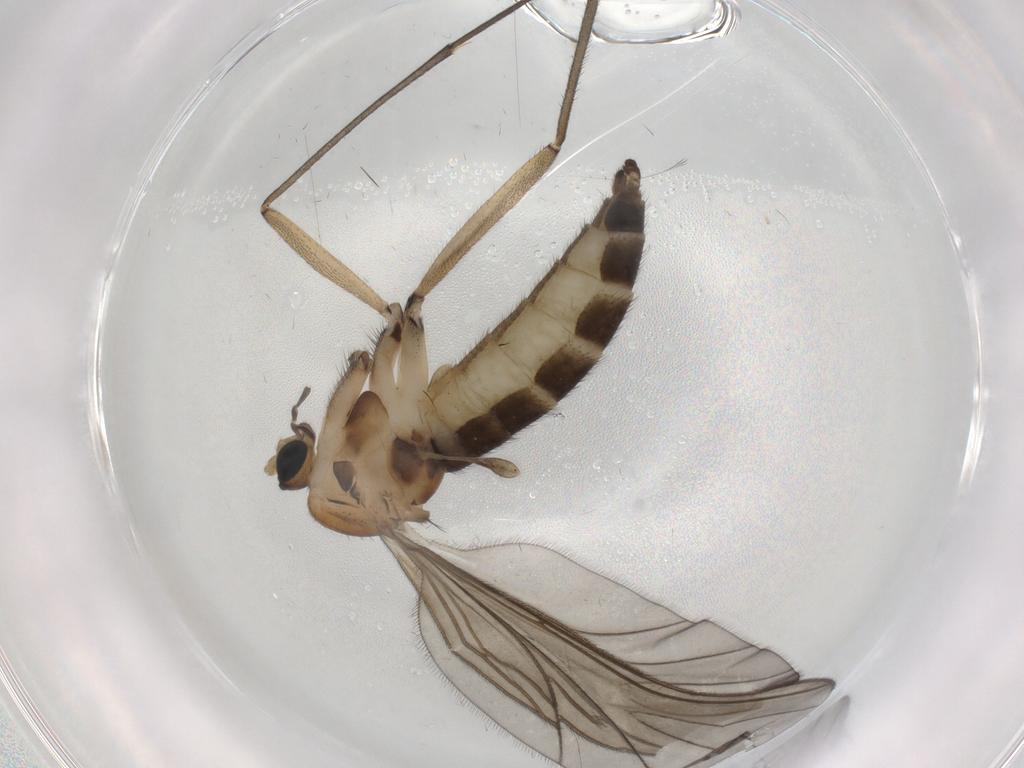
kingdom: Animalia
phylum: Arthropoda
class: Insecta
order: Diptera
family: Sciaridae
